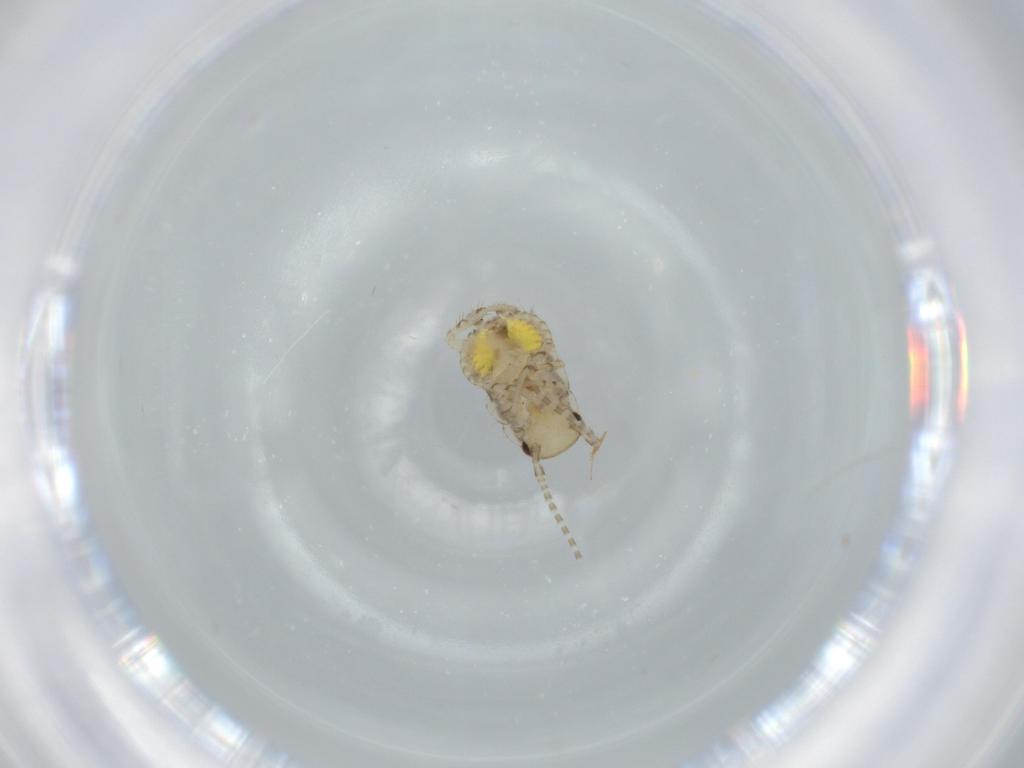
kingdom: Animalia
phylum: Arthropoda
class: Insecta
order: Blattodea
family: Ectobiidae
